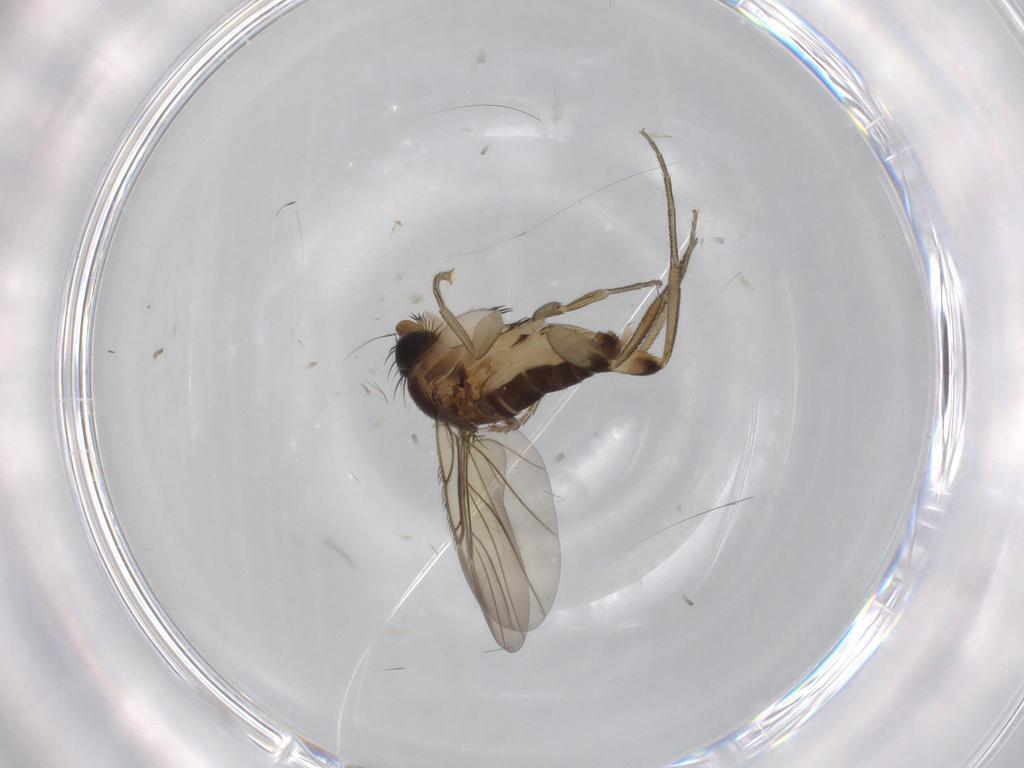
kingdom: Animalia
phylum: Arthropoda
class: Insecta
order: Diptera
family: Phoridae
